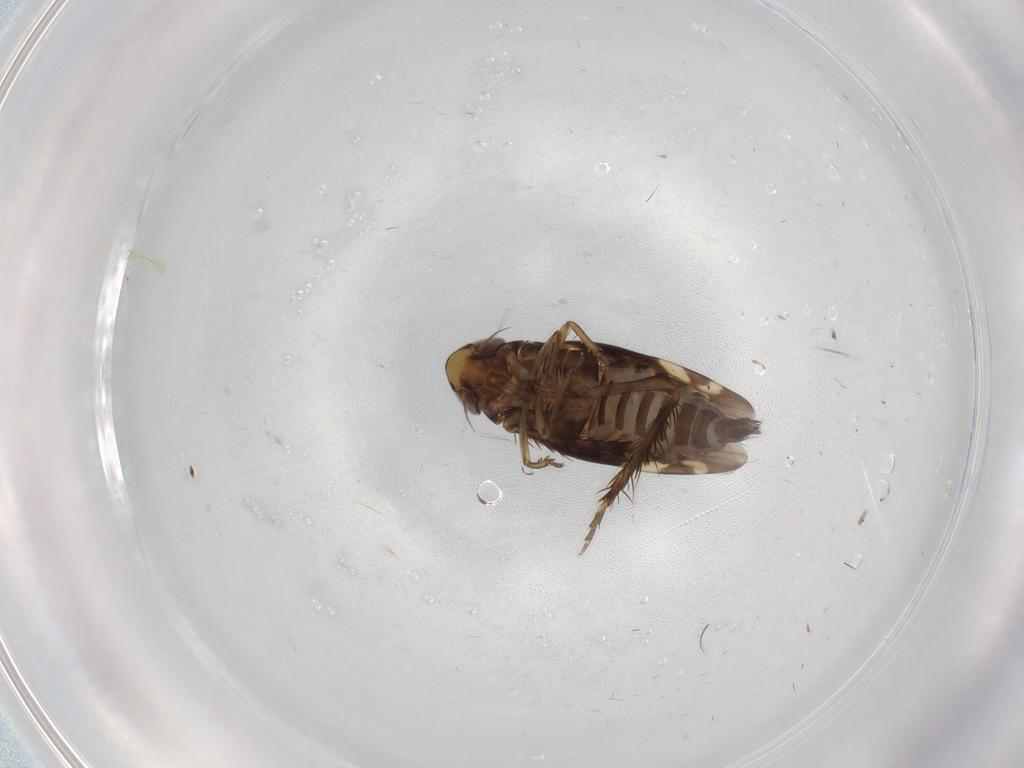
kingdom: Animalia
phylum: Arthropoda
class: Insecta
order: Hemiptera
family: Cicadellidae
